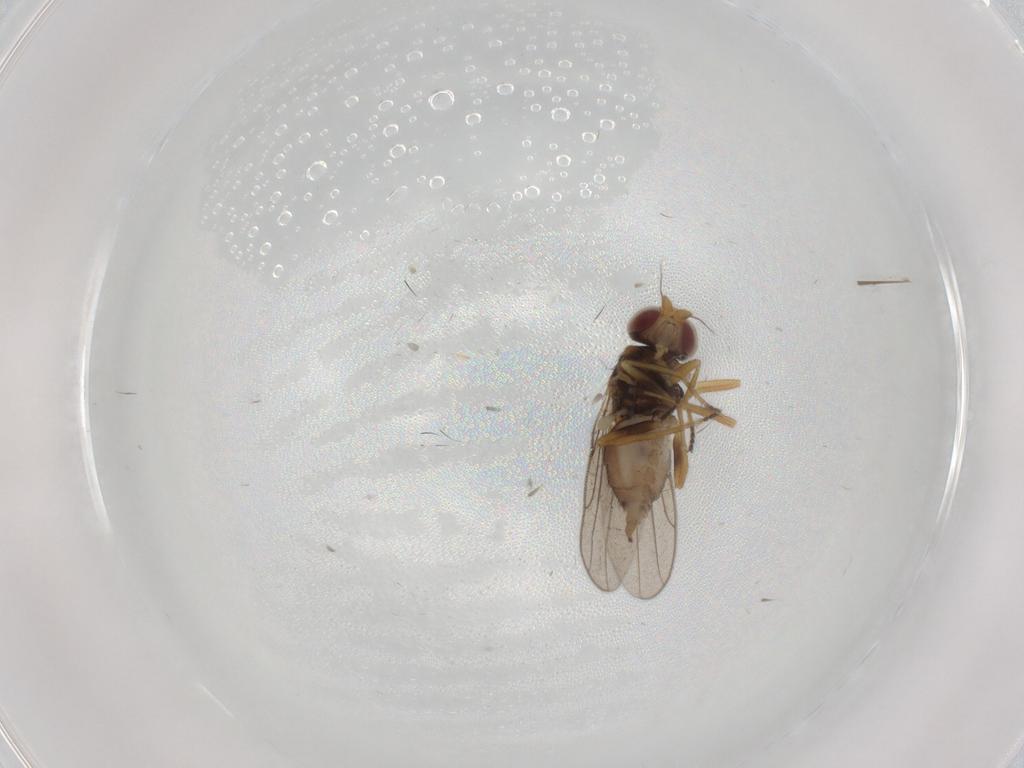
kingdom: Animalia
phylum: Arthropoda
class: Insecta
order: Diptera
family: Chloropidae
